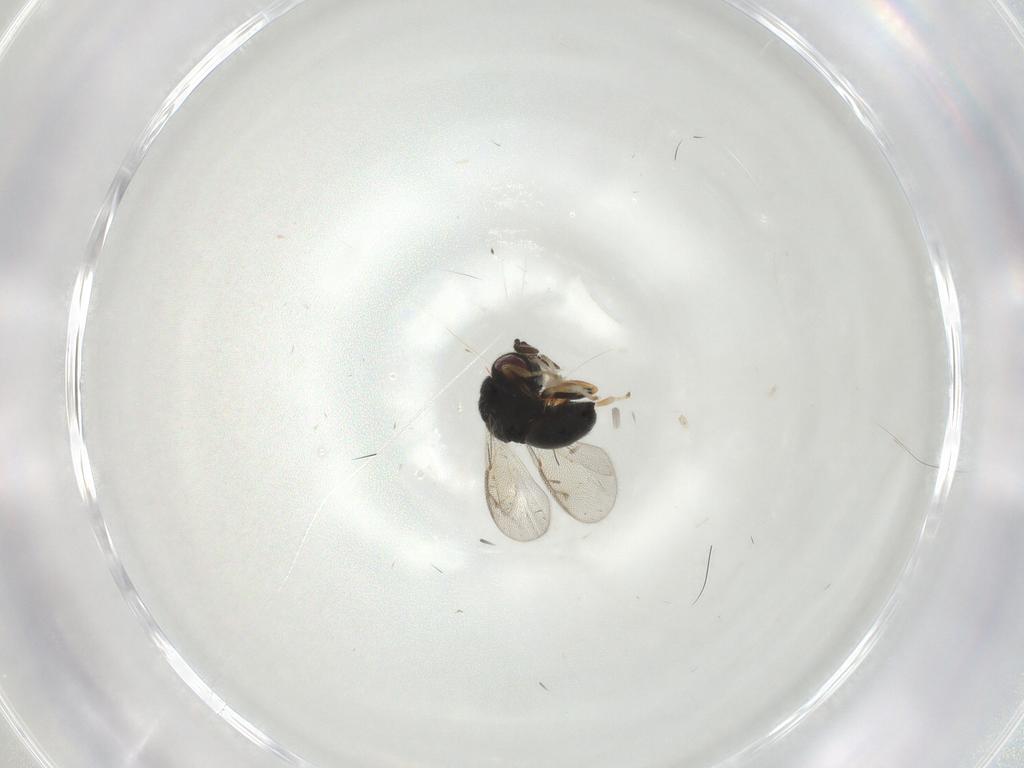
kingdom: Animalia
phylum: Arthropoda
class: Insecta
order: Hymenoptera
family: Eurytomidae
